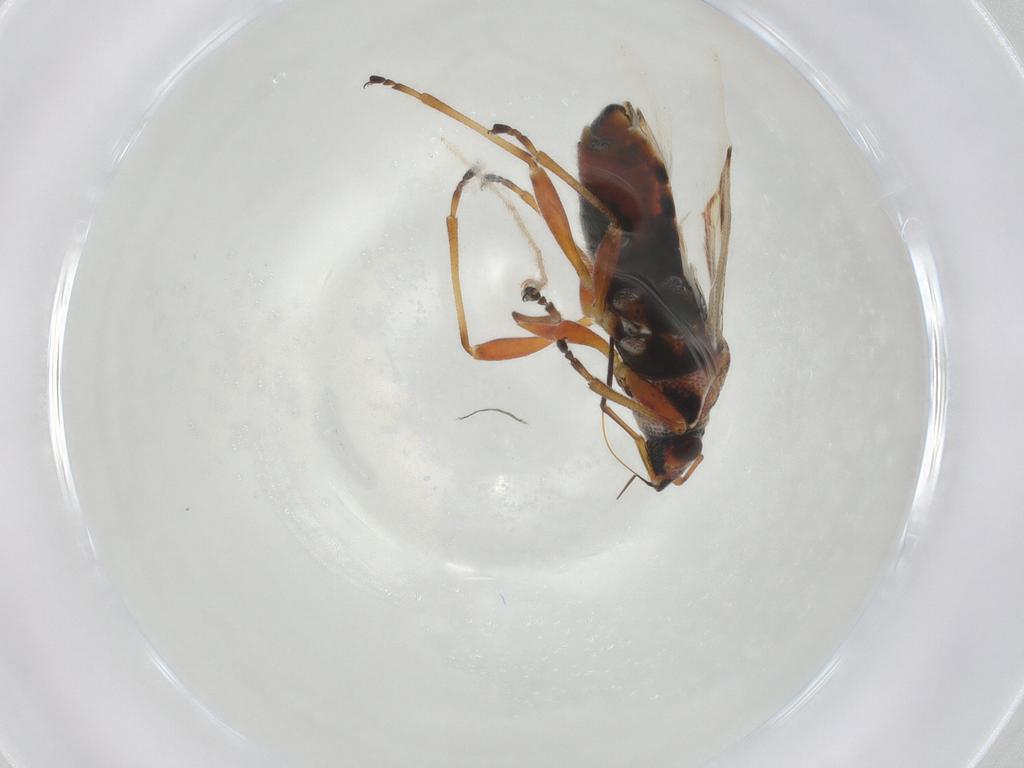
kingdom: Animalia
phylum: Arthropoda
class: Insecta
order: Hemiptera
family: Lygaeidae
